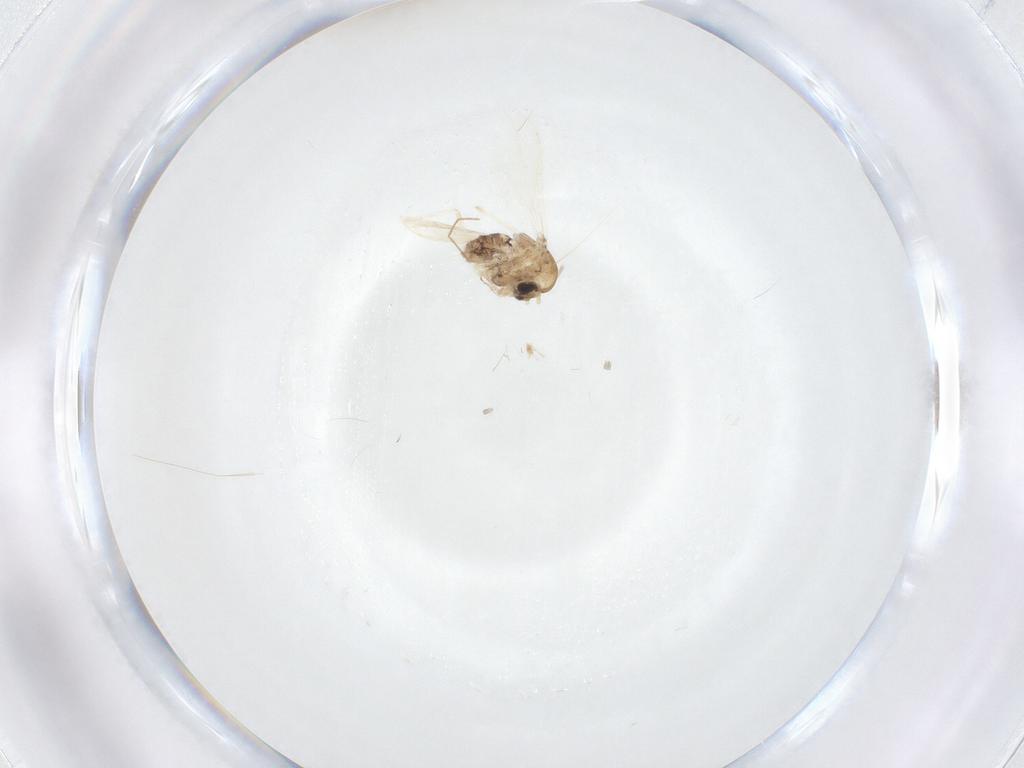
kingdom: Animalia
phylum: Arthropoda
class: Insecta
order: Diptera
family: Chironomidae
